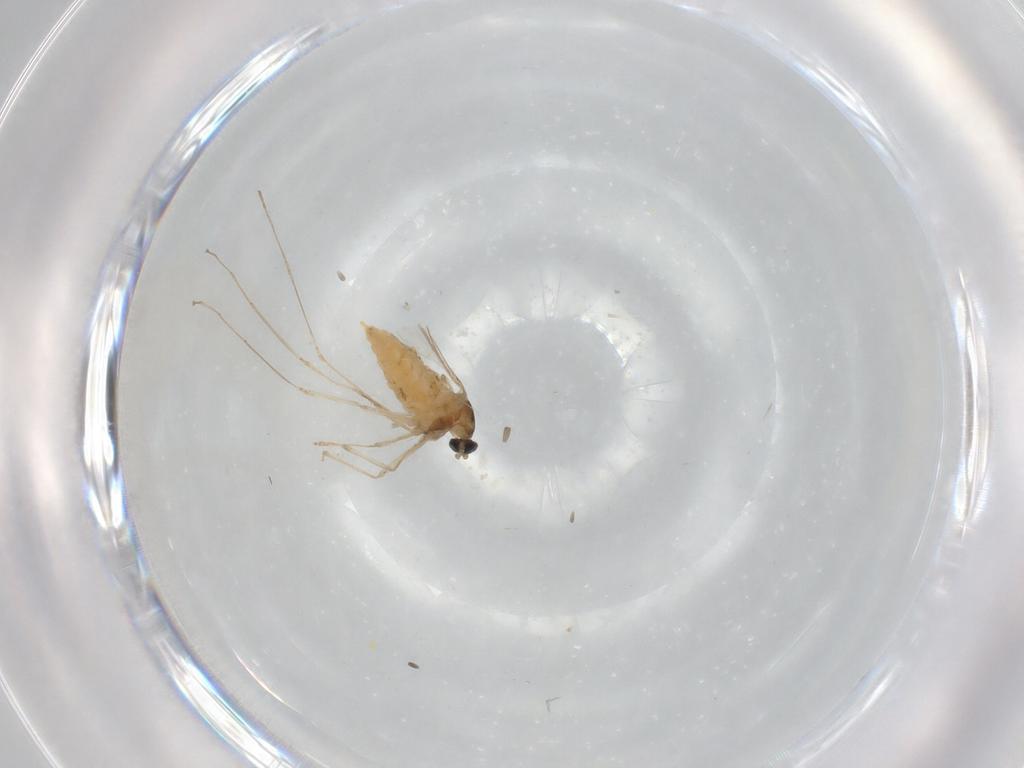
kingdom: Animalia
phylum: Arthropoda
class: Insecta
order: Diptera
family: Cecidomyiidae
